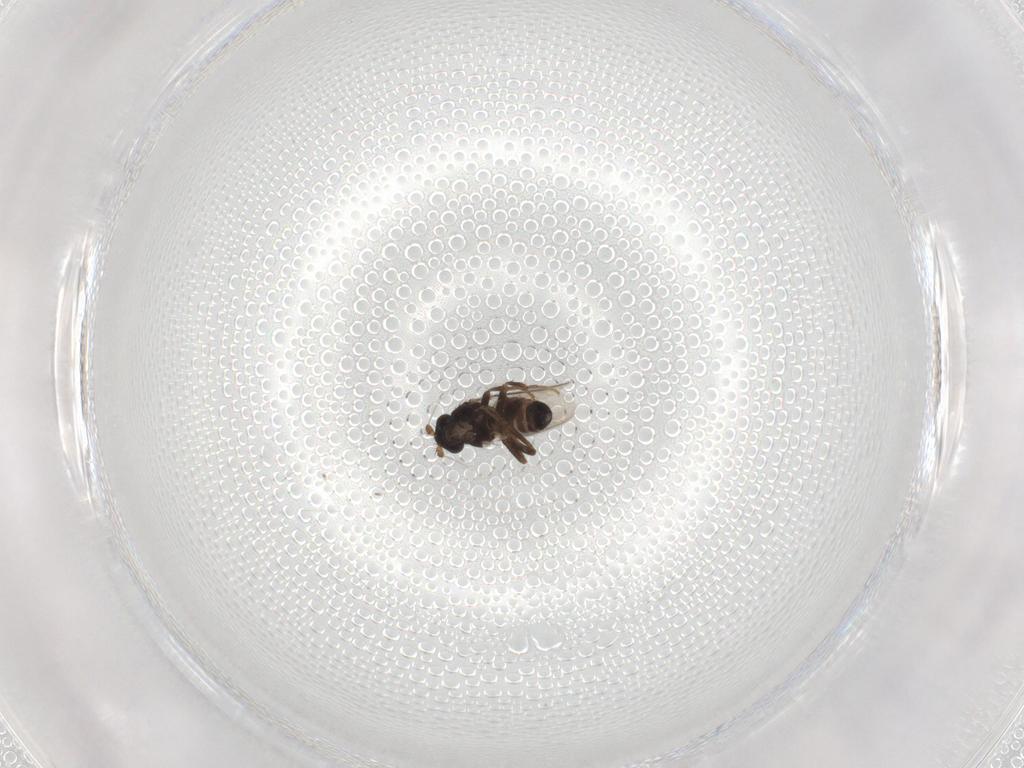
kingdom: Animalia
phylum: Arthropoda
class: Insecta
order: Diptera
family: Sphaeroceridae
